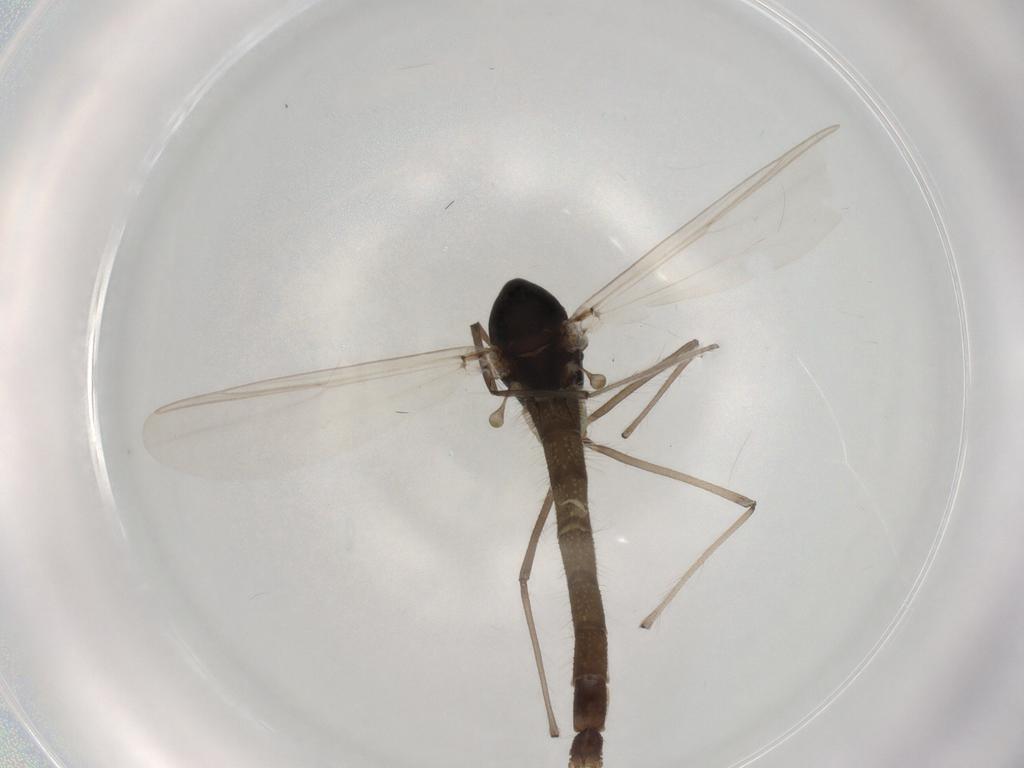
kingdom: Animalia
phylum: Arthropoda
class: Insecta
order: Diptera
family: Chironomidae
